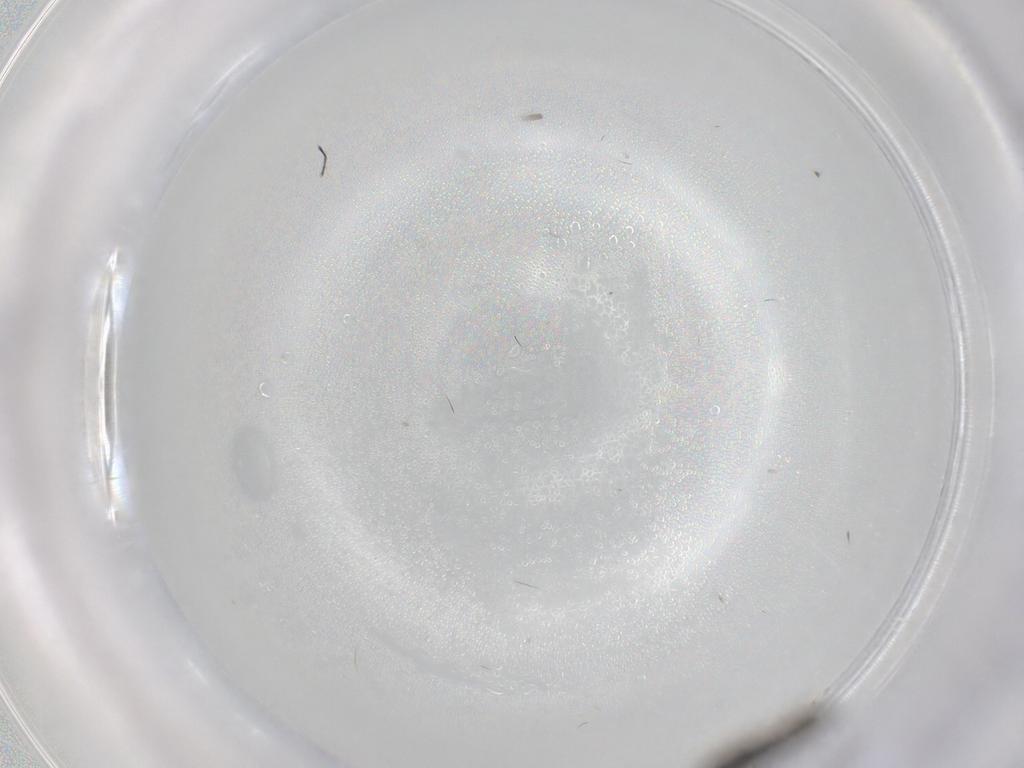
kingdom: Animalia
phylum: Arthropoda
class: Insecta
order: Diptera
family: Cecidomyiidae
